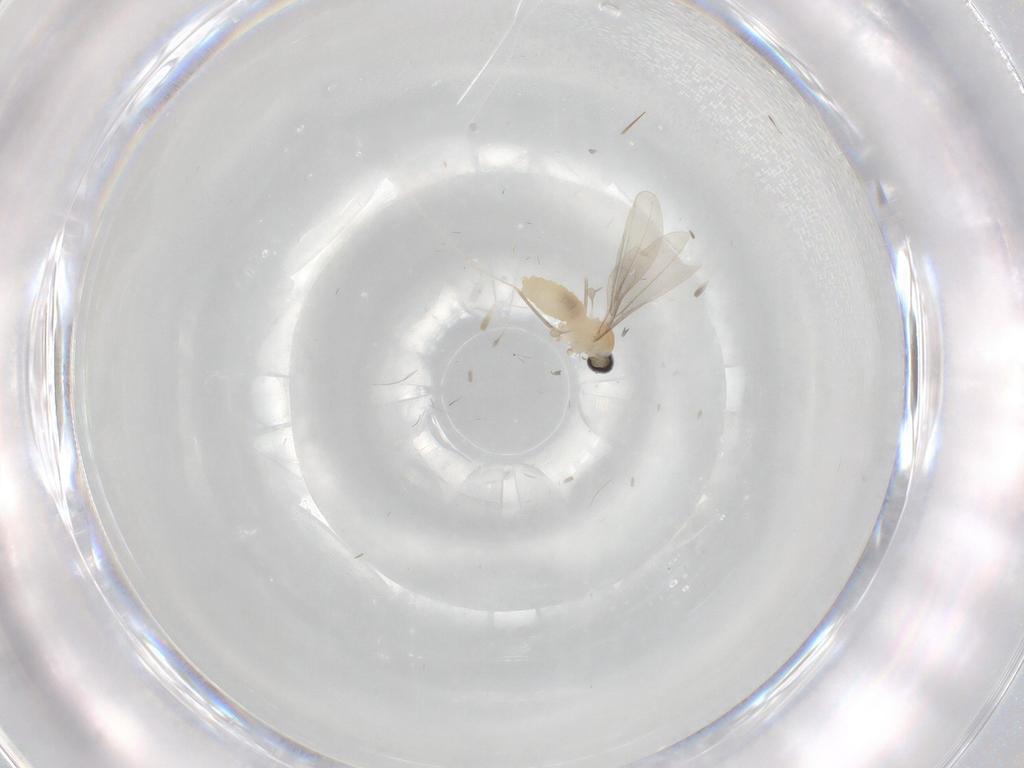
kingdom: Animalia
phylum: Arthropoda
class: Insecta
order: Diptera
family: Cecidomyiidae
